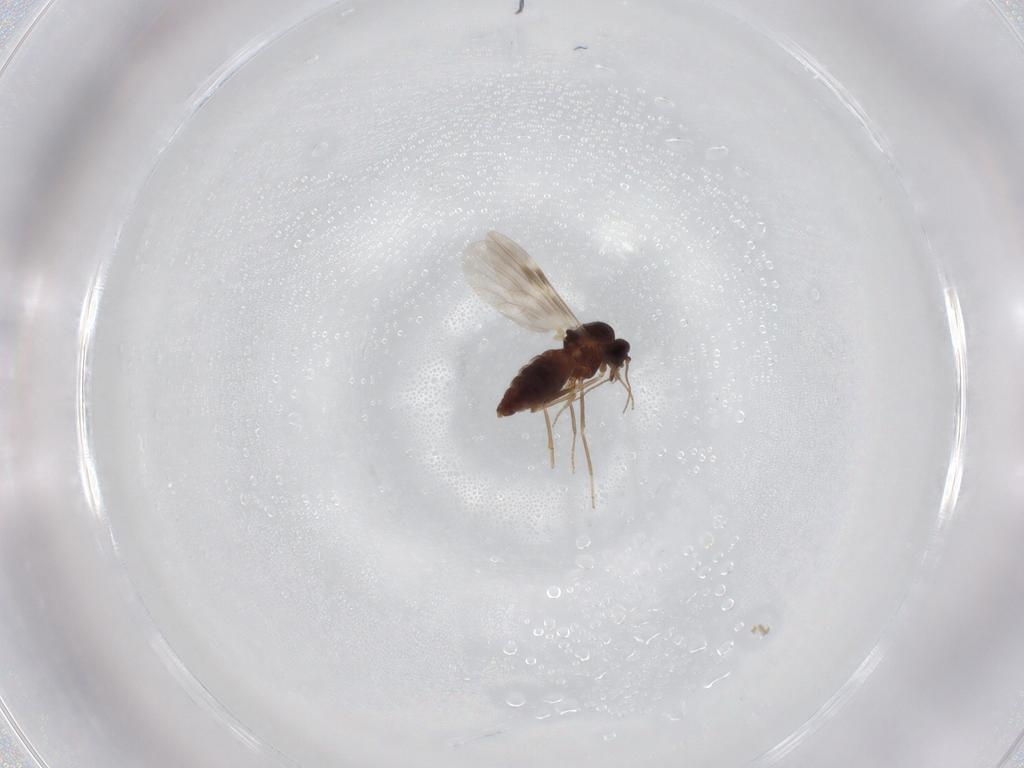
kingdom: Animalia
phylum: Arthropoda
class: Insecta
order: Diptera
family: Syrphidae
